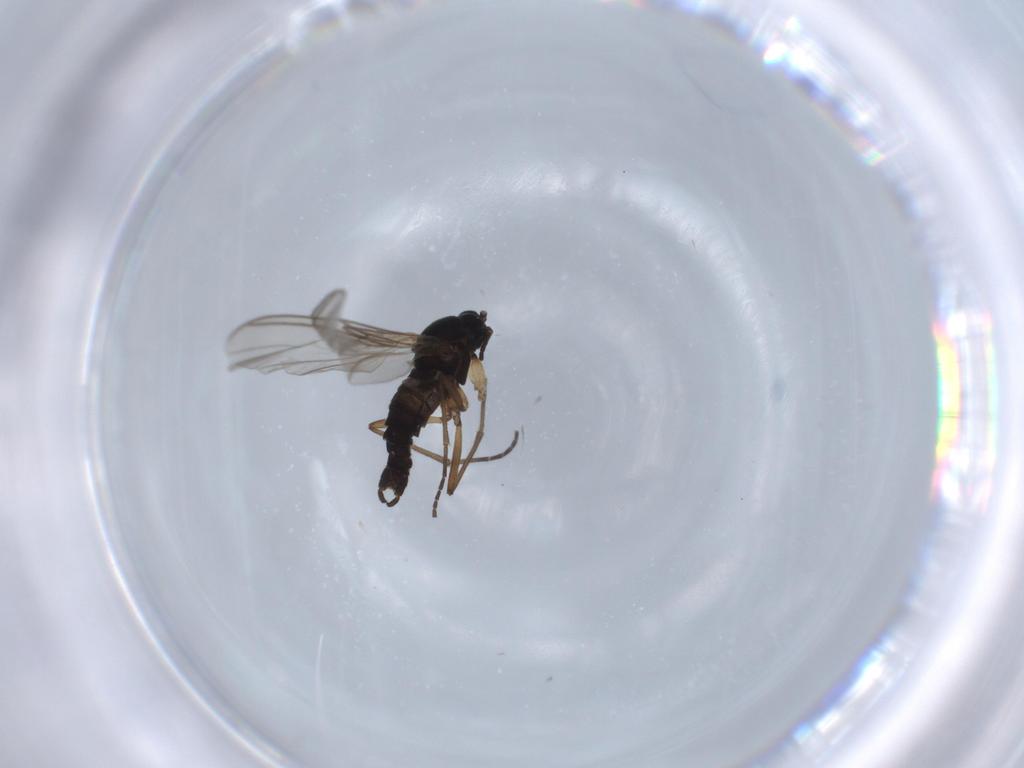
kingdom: Animalia
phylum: Arthropoda
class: Insecta
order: Diptera
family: Sciaridae
